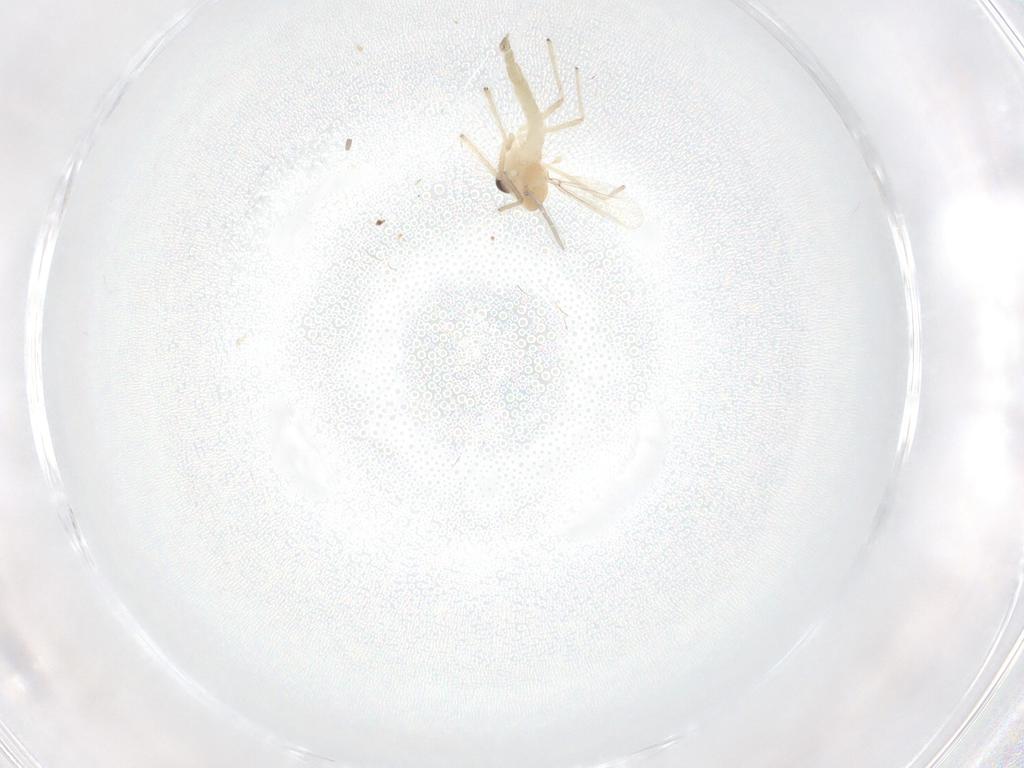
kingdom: Animalia
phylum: Arthropoda
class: Insecta
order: Diptera
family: Chironomidae
